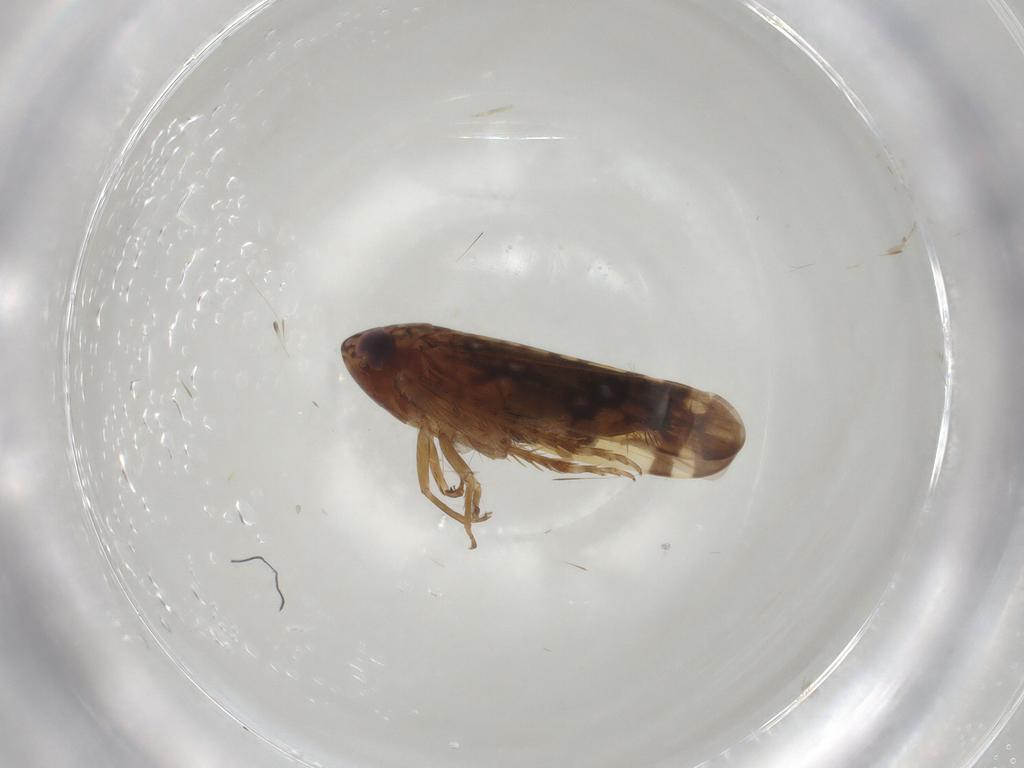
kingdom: Animalia
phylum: Arthropoda
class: Insecta
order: Hemiptera
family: Cicadellidae
